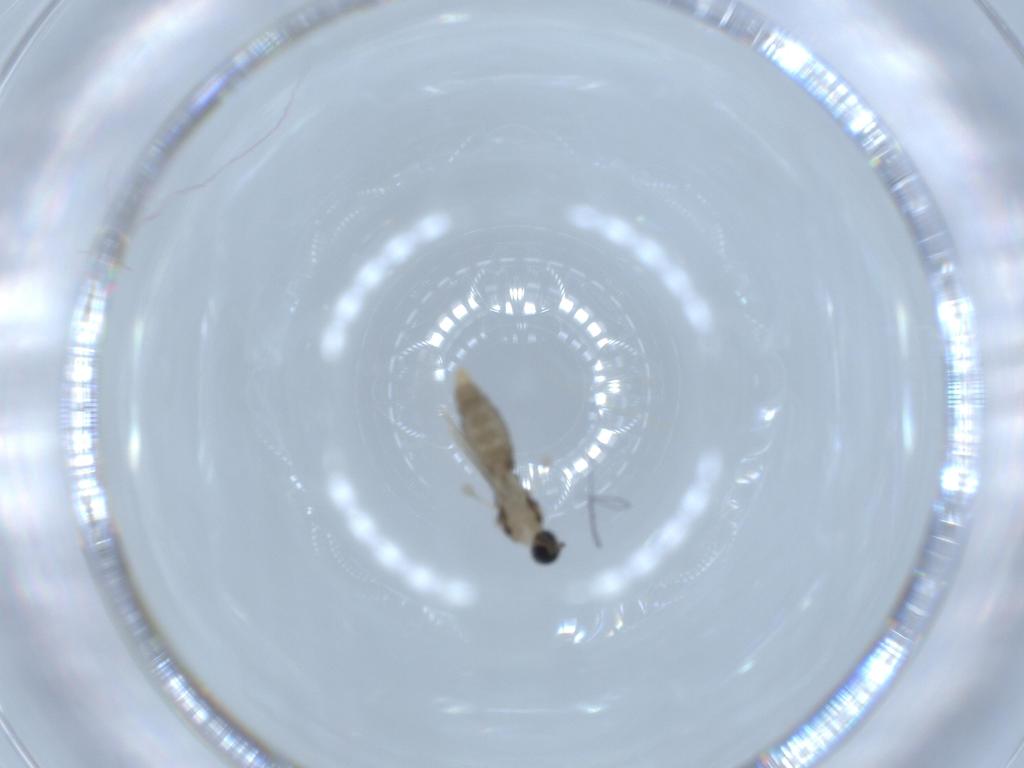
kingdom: Animalia
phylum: Arthropoda
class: Insecta
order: Diptera
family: Cecidomyiidae
